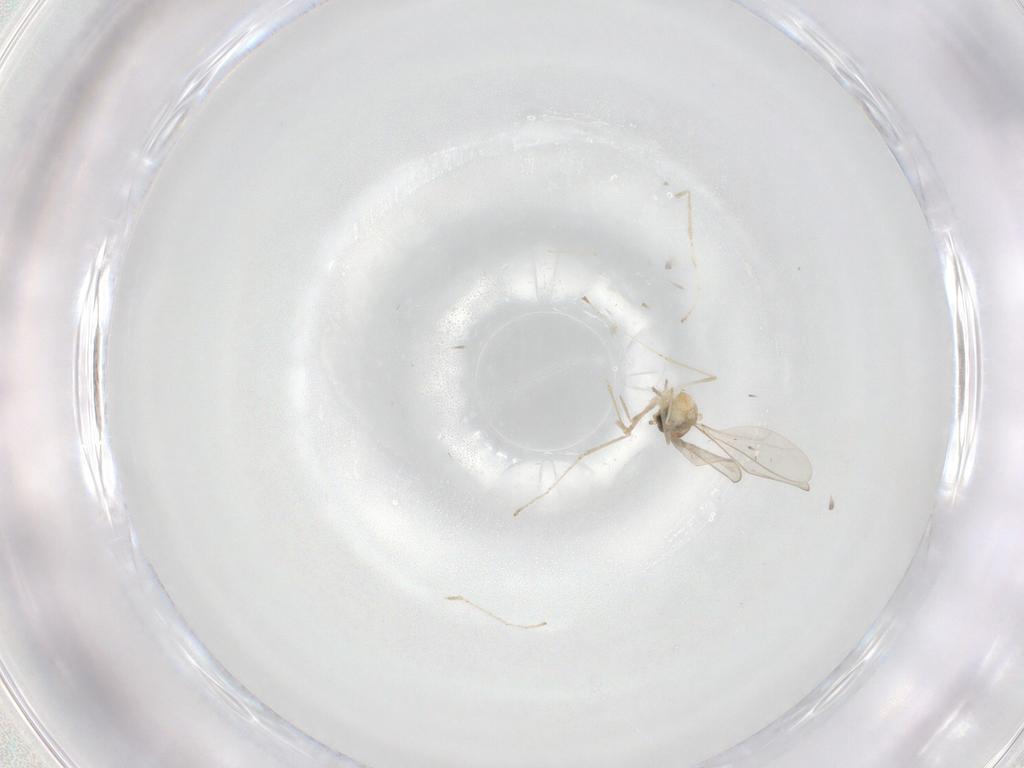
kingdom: Animalia
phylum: Arthropoda
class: Insecta
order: Diptera
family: Cecidomyiidae
